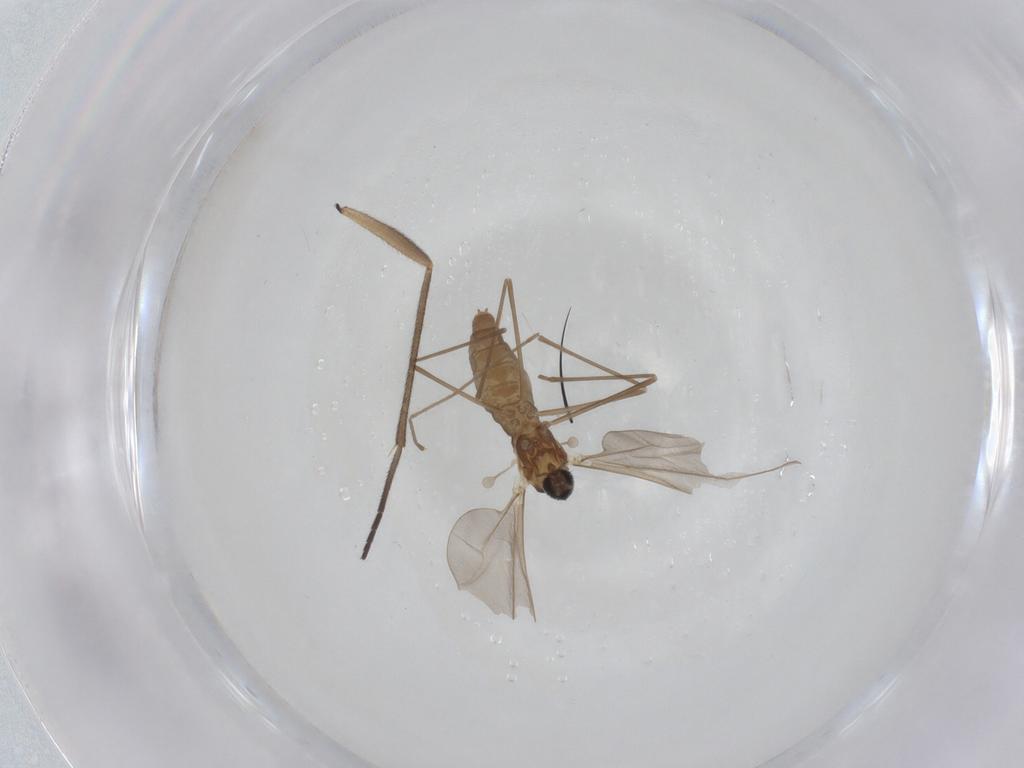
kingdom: Animalia
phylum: Arthropoda
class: Insecta
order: Diptera
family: Cecidomyiidae
